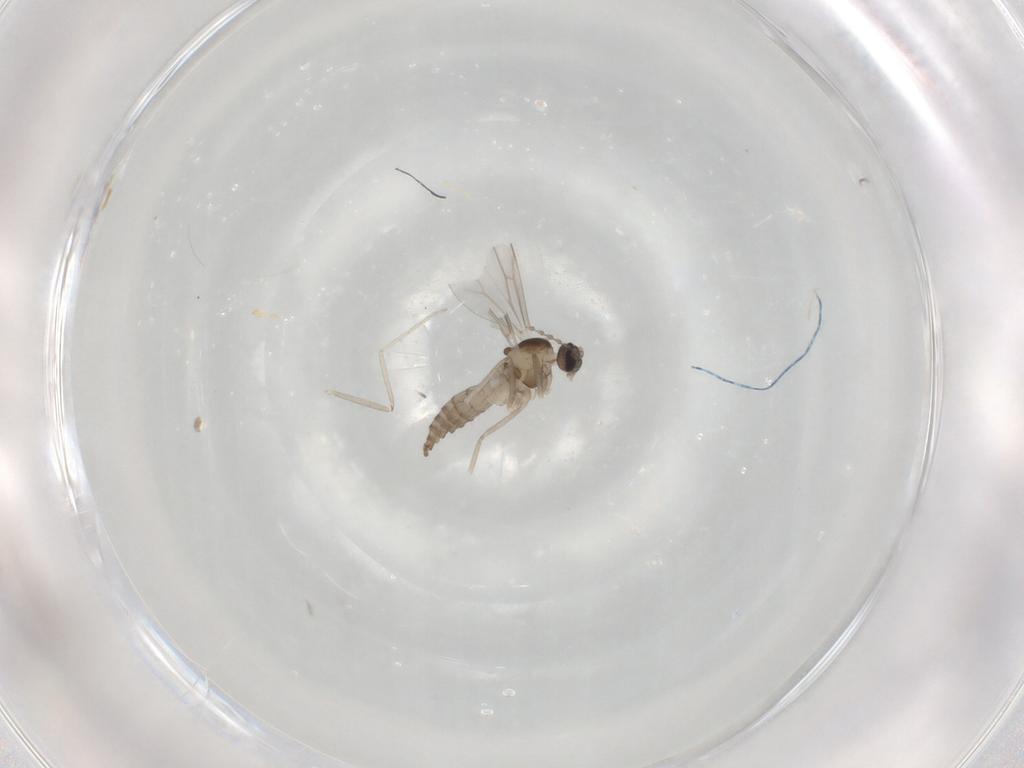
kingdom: Animalia
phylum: Arthropoda
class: Insecta
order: Diptera
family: Cecidomyiidae
